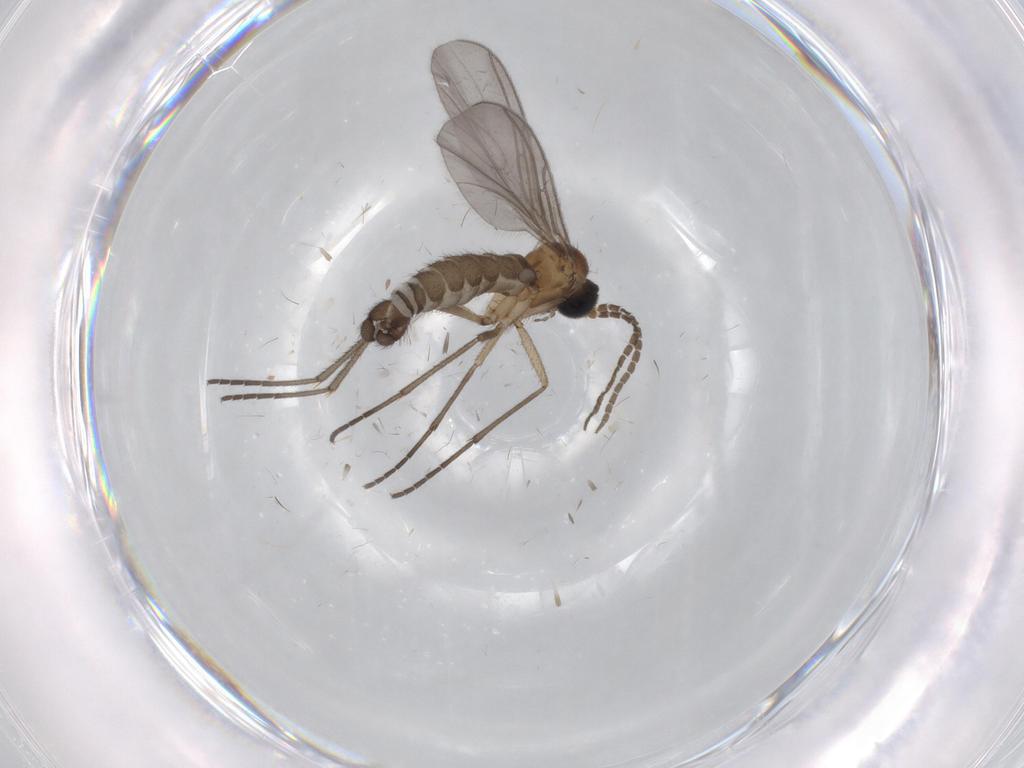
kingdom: Animalia
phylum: Arthropoda
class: Insecta
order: Diptera
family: Sciaridae
